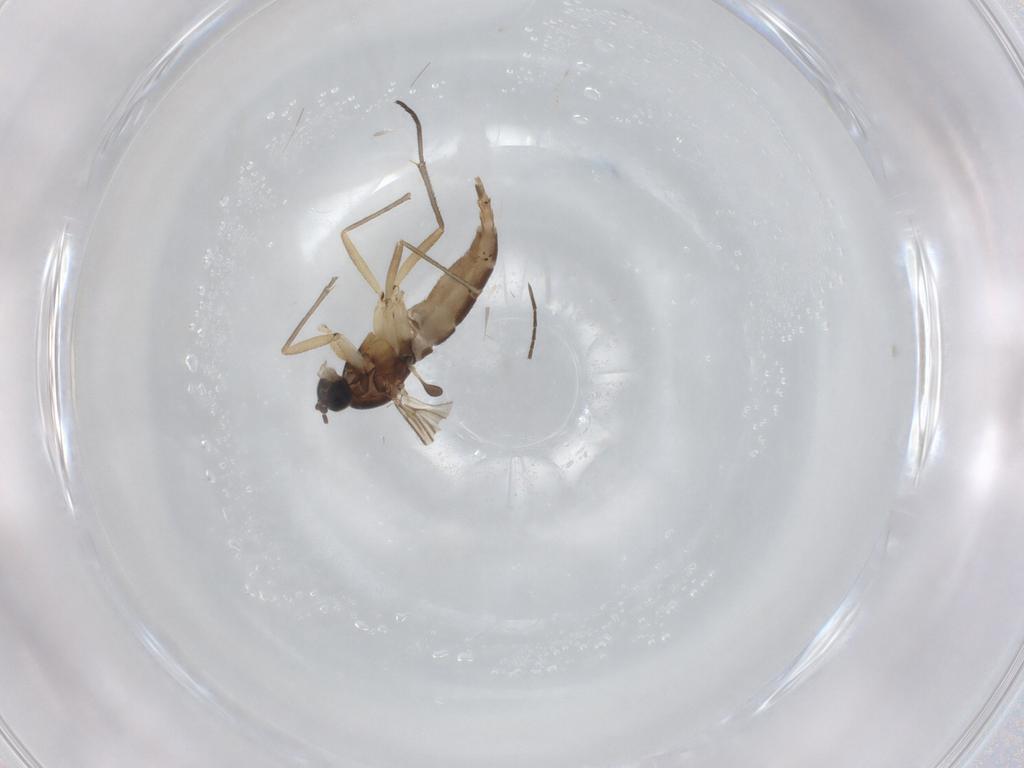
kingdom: Animalia
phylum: Arthropoda
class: Insecta
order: Diptera
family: Sciaridae
